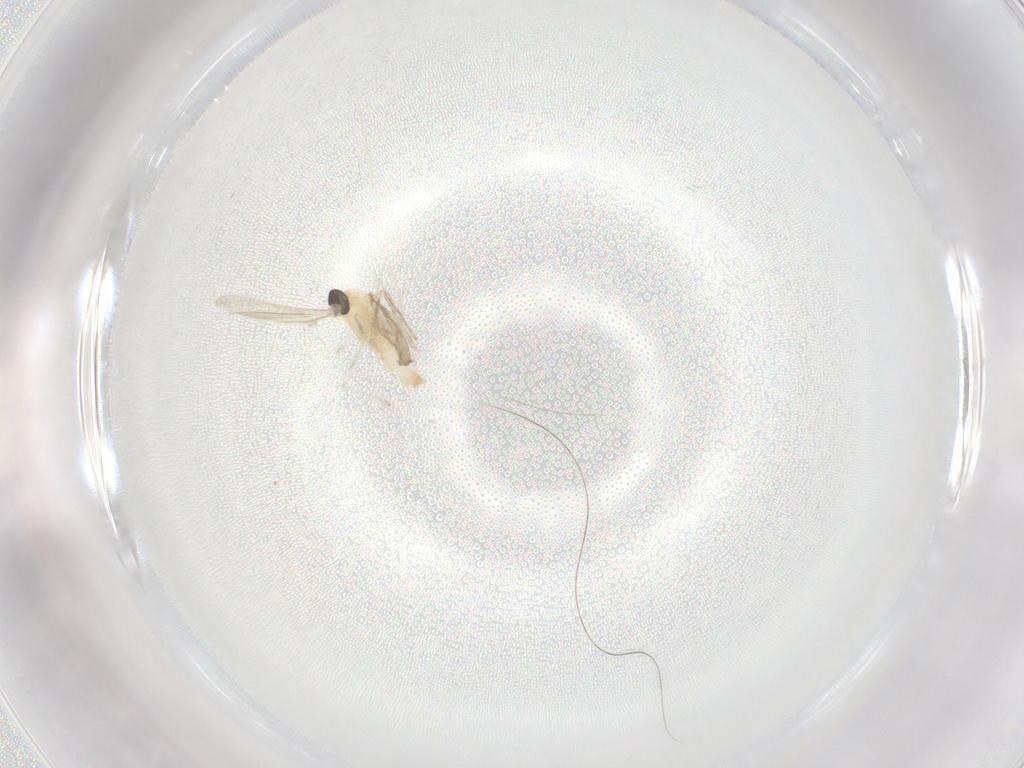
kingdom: Animalia
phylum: Arthropoda
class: Insecta
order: Diptera
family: Cecidomyiidae
